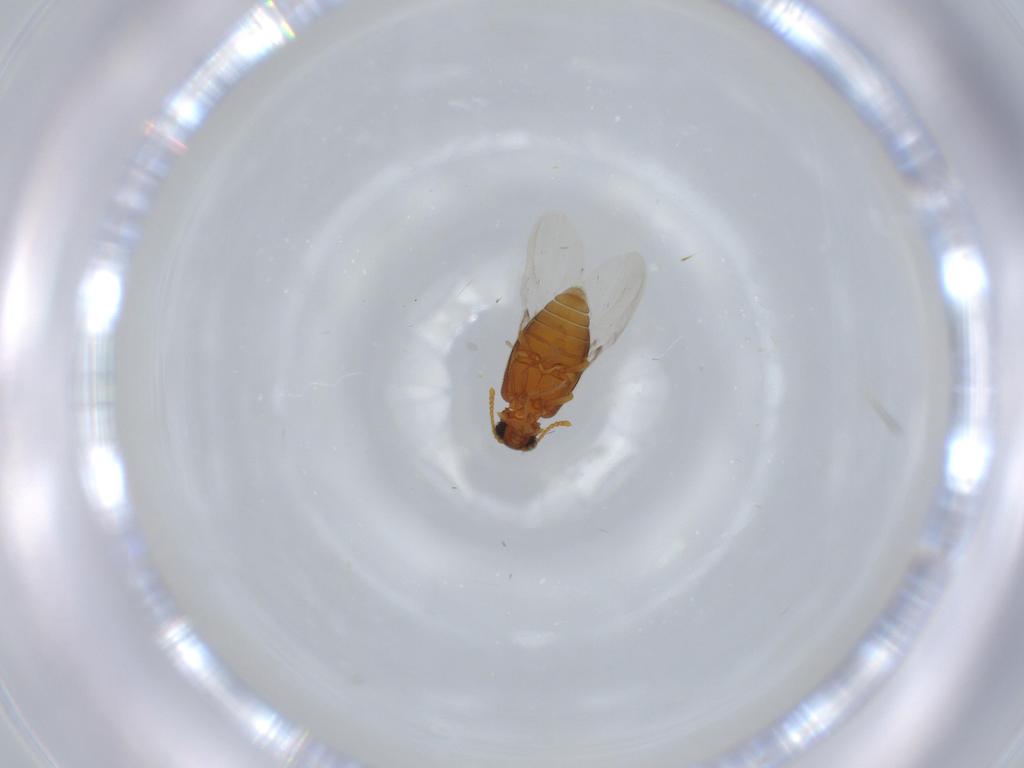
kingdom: Animalia
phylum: Arthropoda
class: Insecta
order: Coleoptera
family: Aderidae
